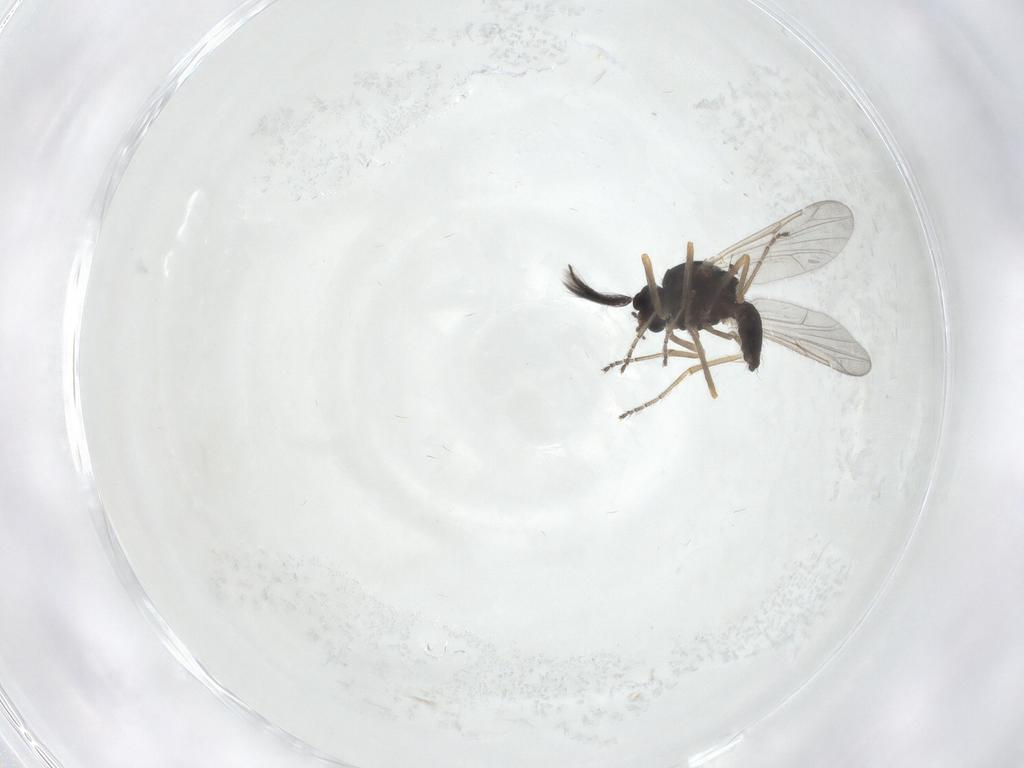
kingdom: Animalia
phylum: Arthropoda
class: Insecta
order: Diptera
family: Ceratopogonidae
